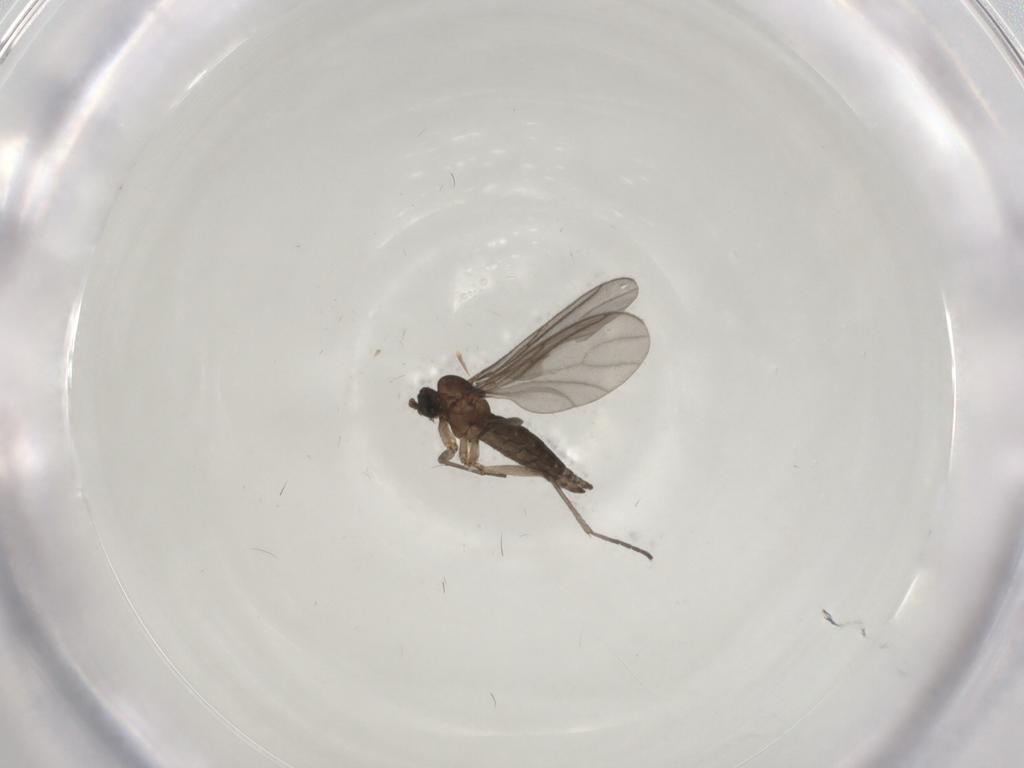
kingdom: Animalia
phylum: Arthropoda
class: Insecta
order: Diptera
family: Sciaridae
